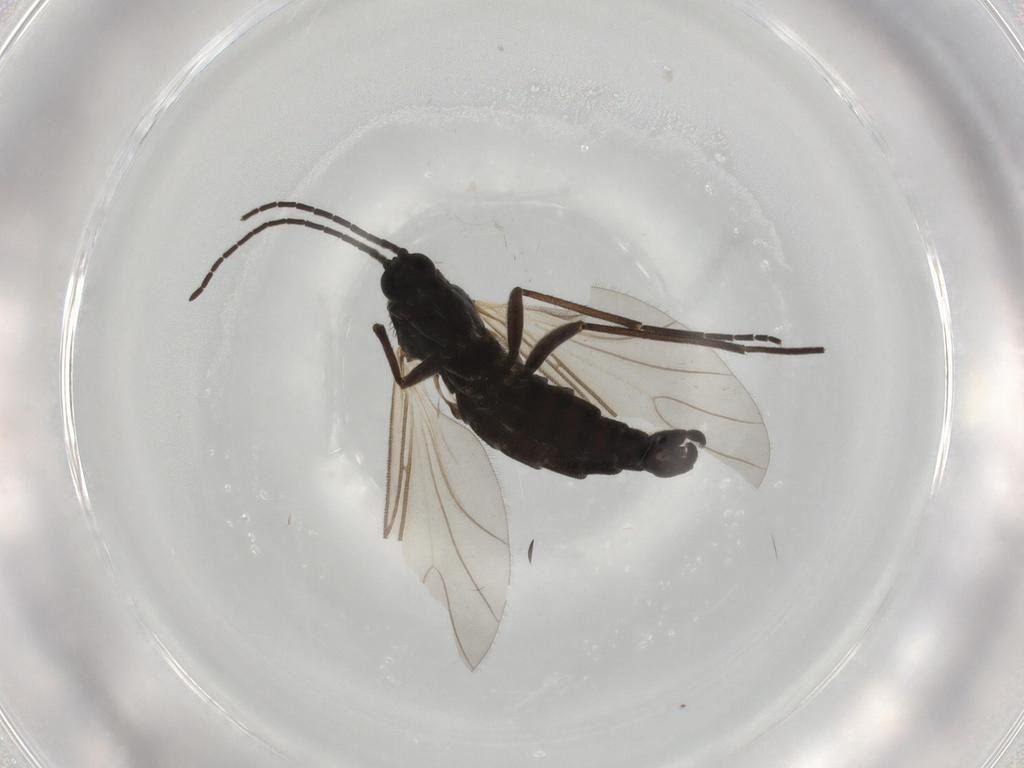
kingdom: Animalia
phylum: Arthropoda
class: Insecta
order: Diptera
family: Sciaridae
